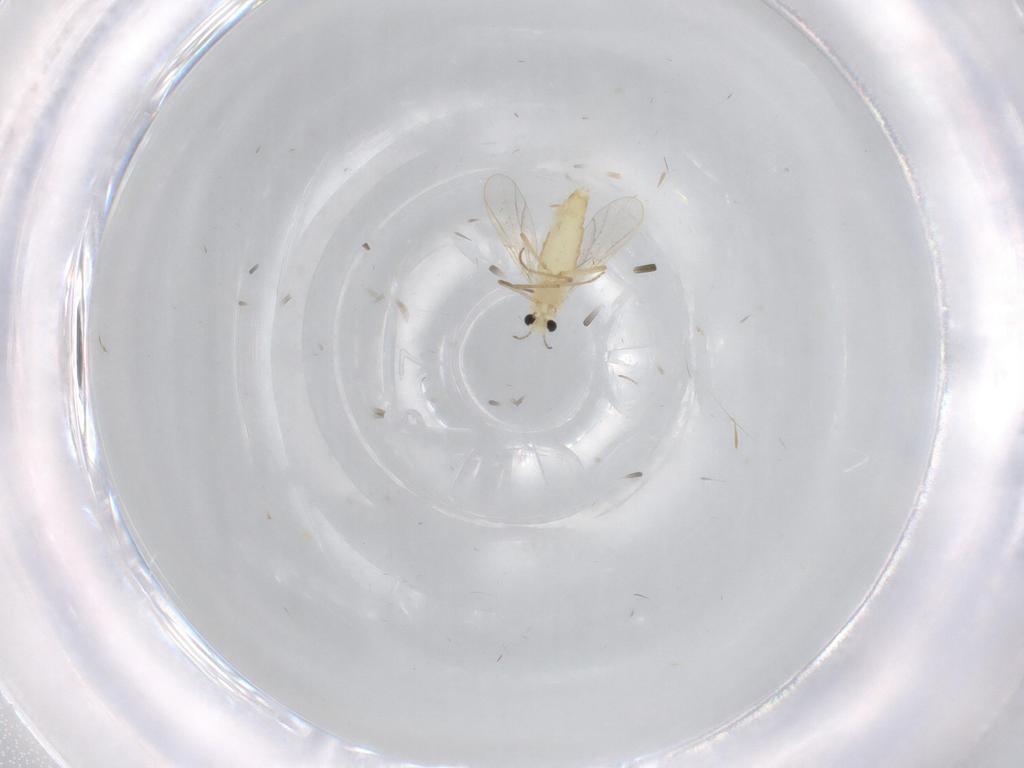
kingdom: Animalia
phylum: Arthropoda
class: Insecta
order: Diptera
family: Chironomidae
